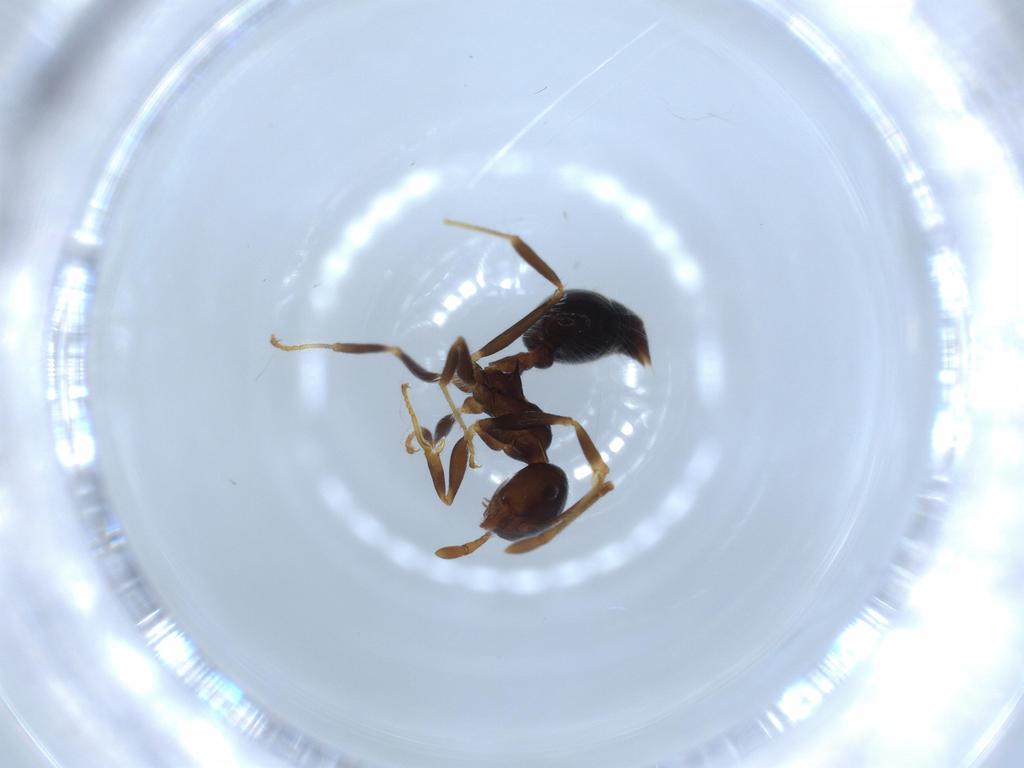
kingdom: Animalia
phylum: Arthropoda
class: Insecta
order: Hymenoptera
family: Formicidae
